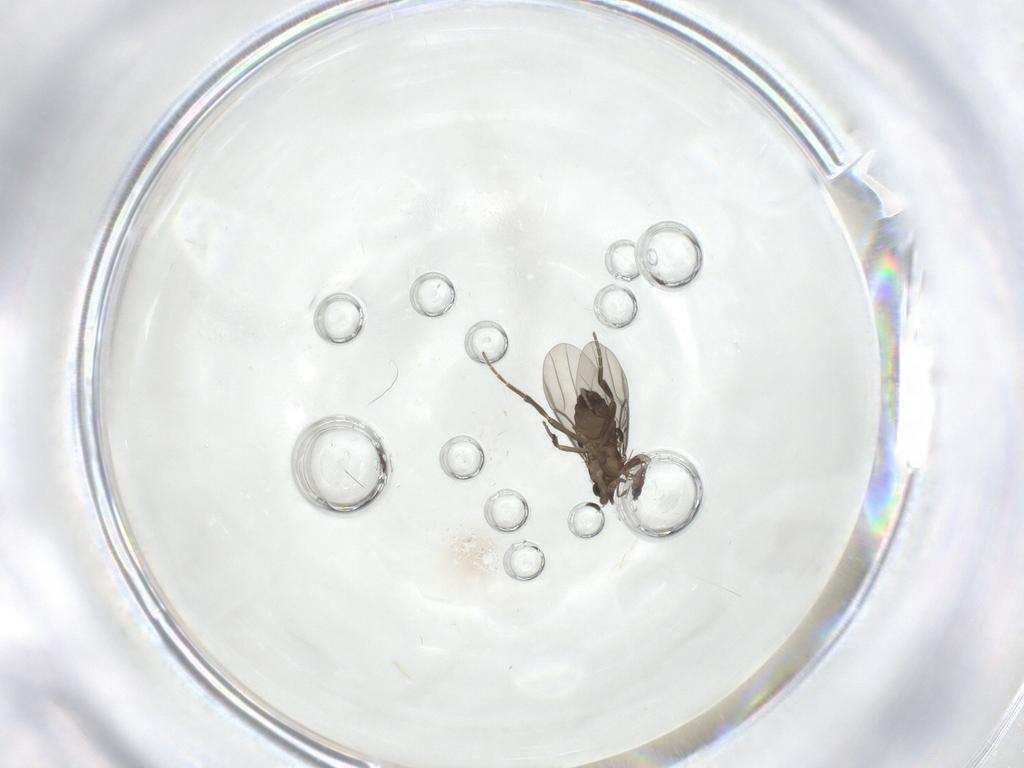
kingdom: Animalia
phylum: Arthropoda
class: Insecta
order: Diptera
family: Phoridae
